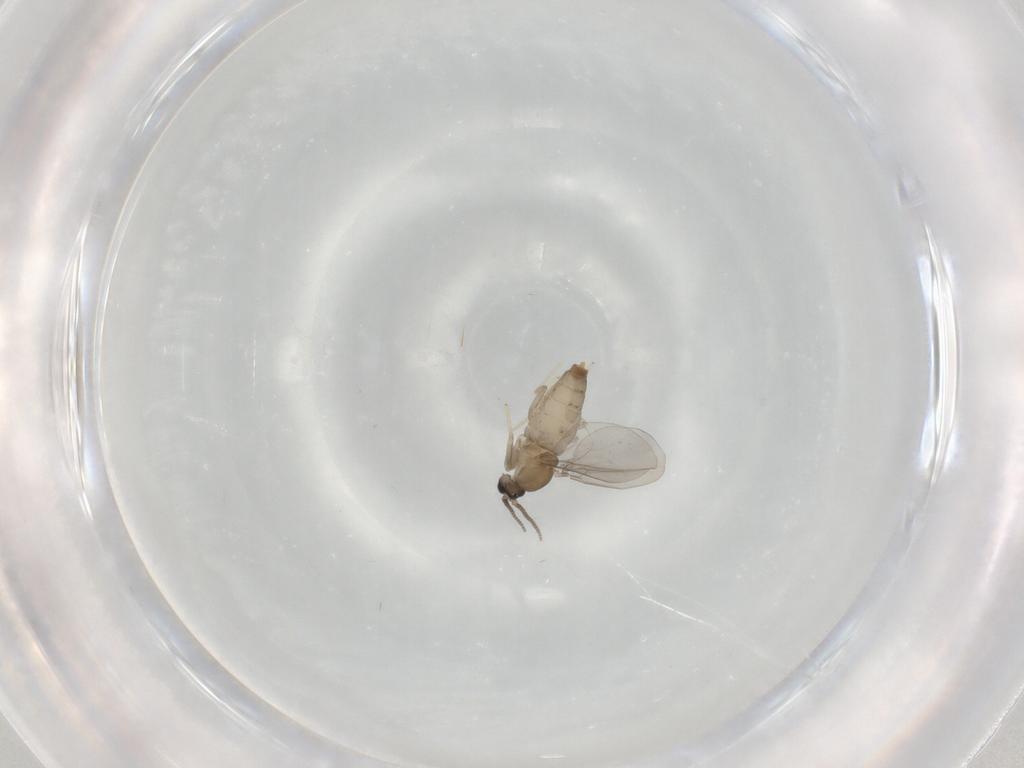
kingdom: Animalia
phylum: Arthropoda
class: Insecta
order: Diptera
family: Cecidomyiidae
